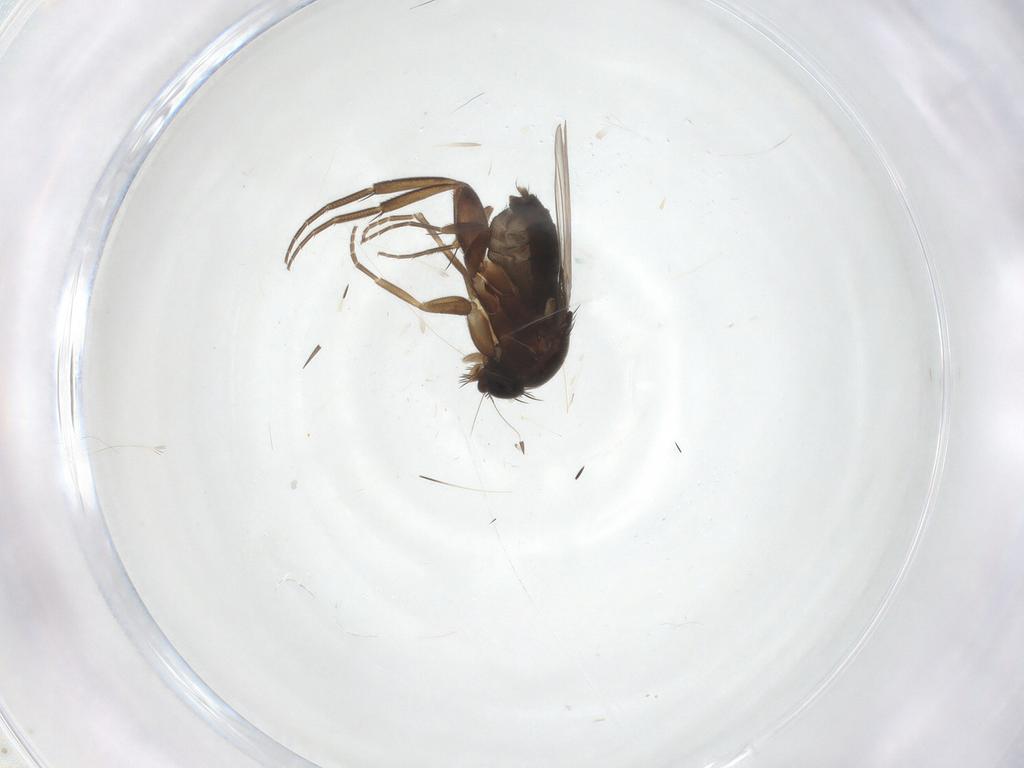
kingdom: Animalia
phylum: Arthropoda
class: Insecta
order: Diptera
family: Phoridae
